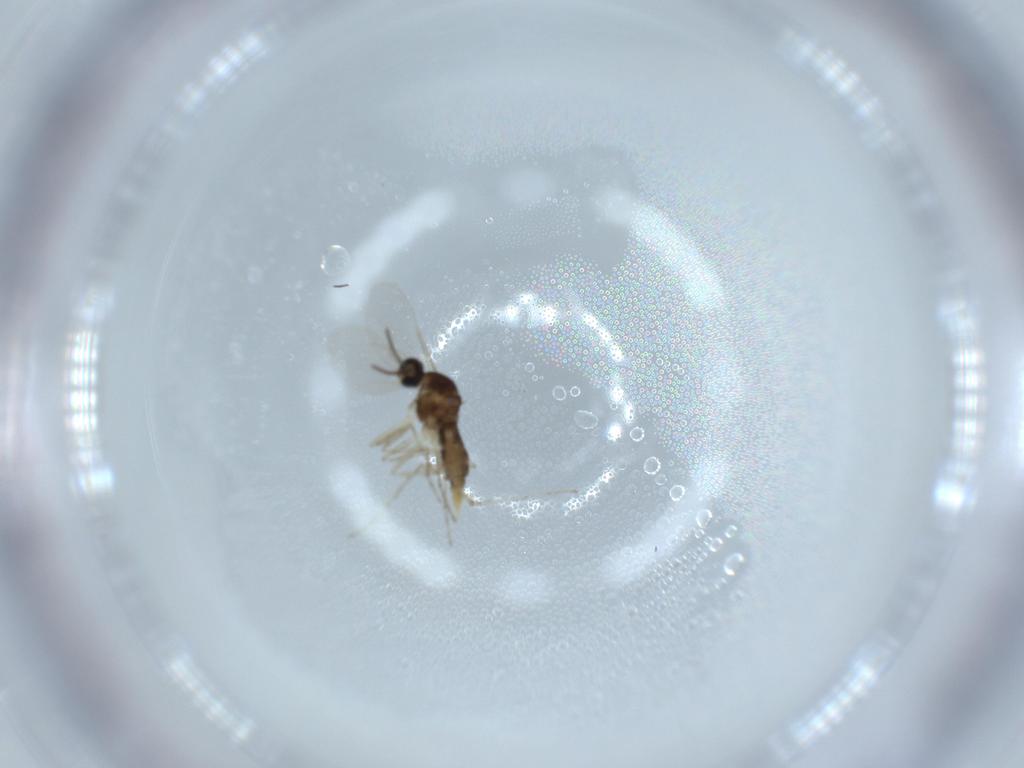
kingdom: Animalia
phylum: Arthropoda
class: Insecta
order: Diptera
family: Cecidomyiidae
